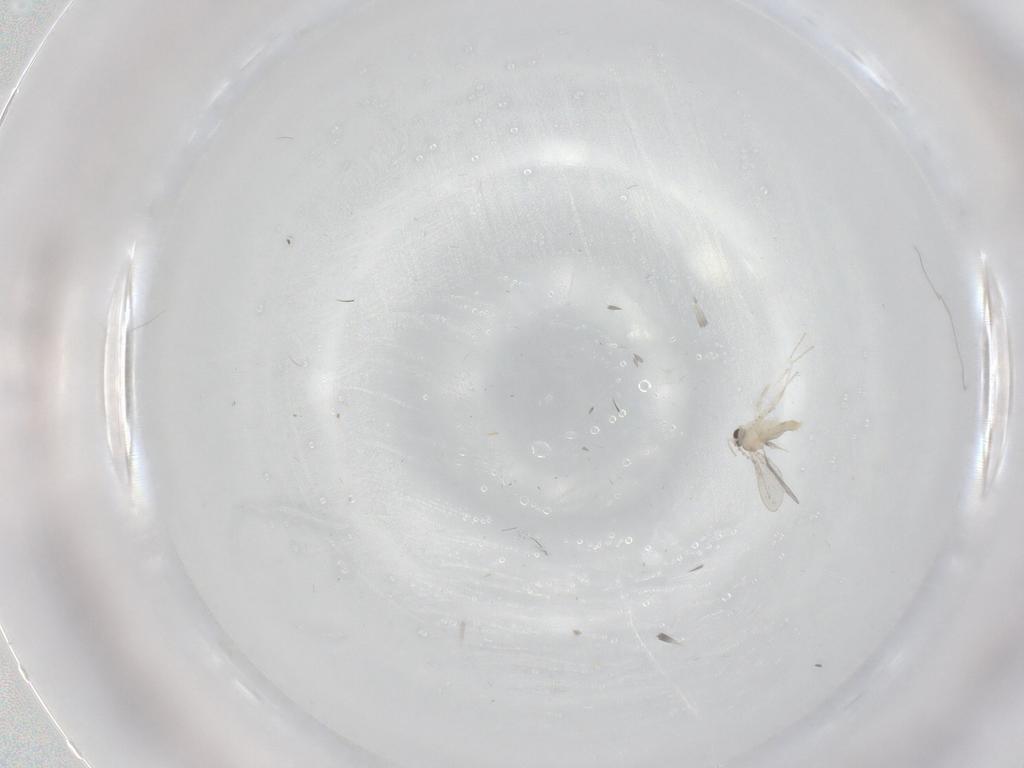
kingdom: Animalia
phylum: Arthropoda
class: Insecta
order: Diptera
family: Cecidomyiidae
